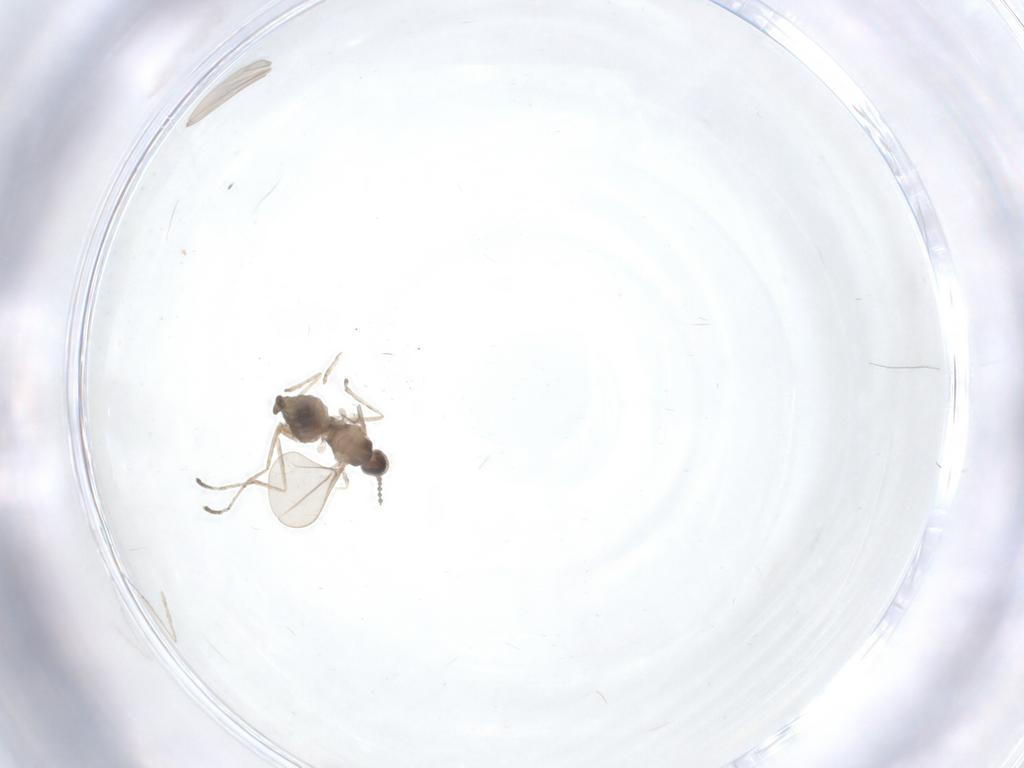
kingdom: Animalia
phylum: Arthropoda
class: Insecta
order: Diptera
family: Cecidomyiidae
